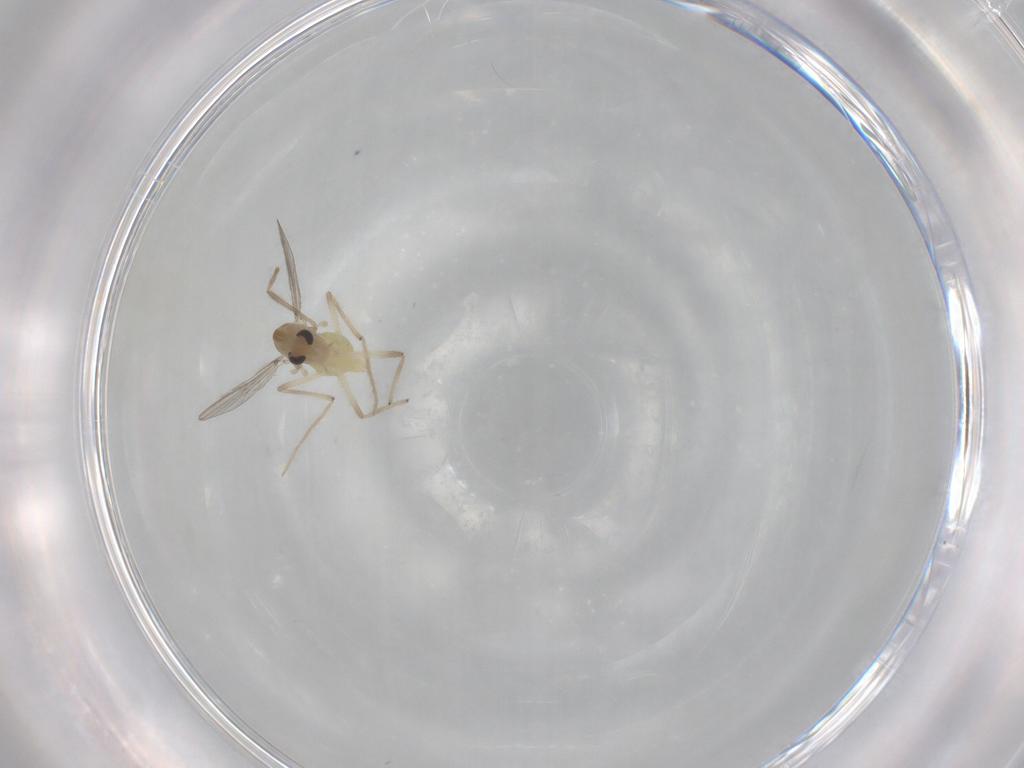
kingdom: Animalia
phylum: Arthropoda
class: Insecta
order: Diptera
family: Chironomidae
